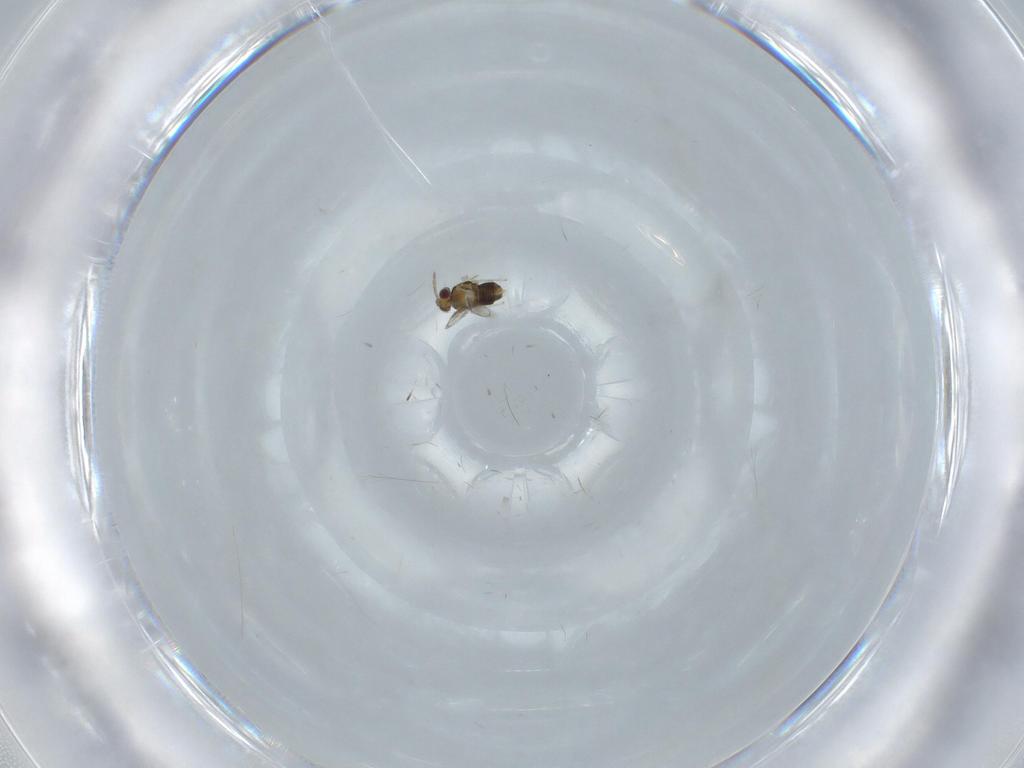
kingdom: Animalia
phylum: Arthropoda
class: Insecta
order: Hymenoptera
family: Aphelinidae
